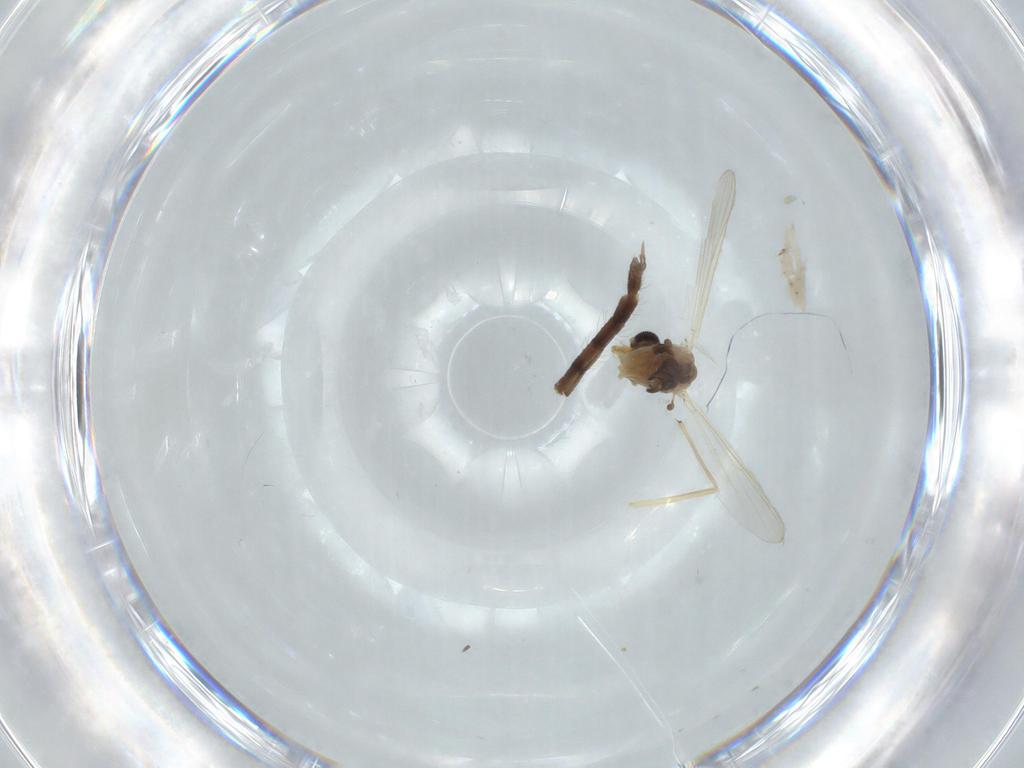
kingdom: Animalia
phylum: Arthropoda
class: Insecta
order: Diptera
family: Chironomidae
